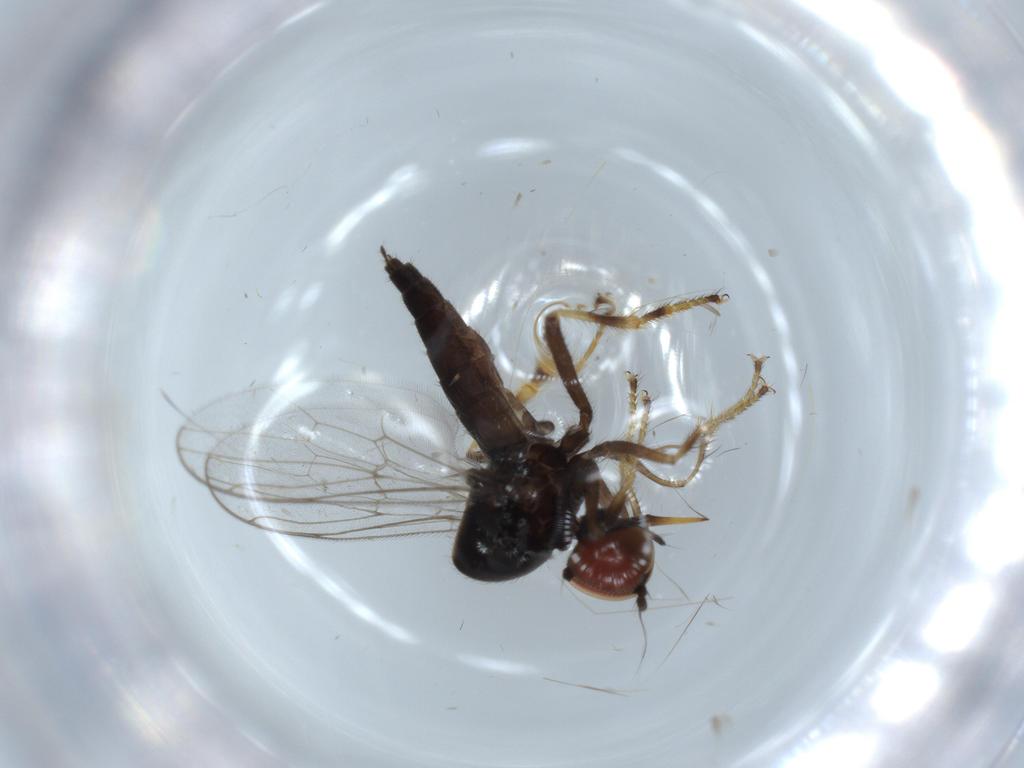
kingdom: Animalia
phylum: Arthropoda
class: Insecta
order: Diptera
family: Hybotidae
